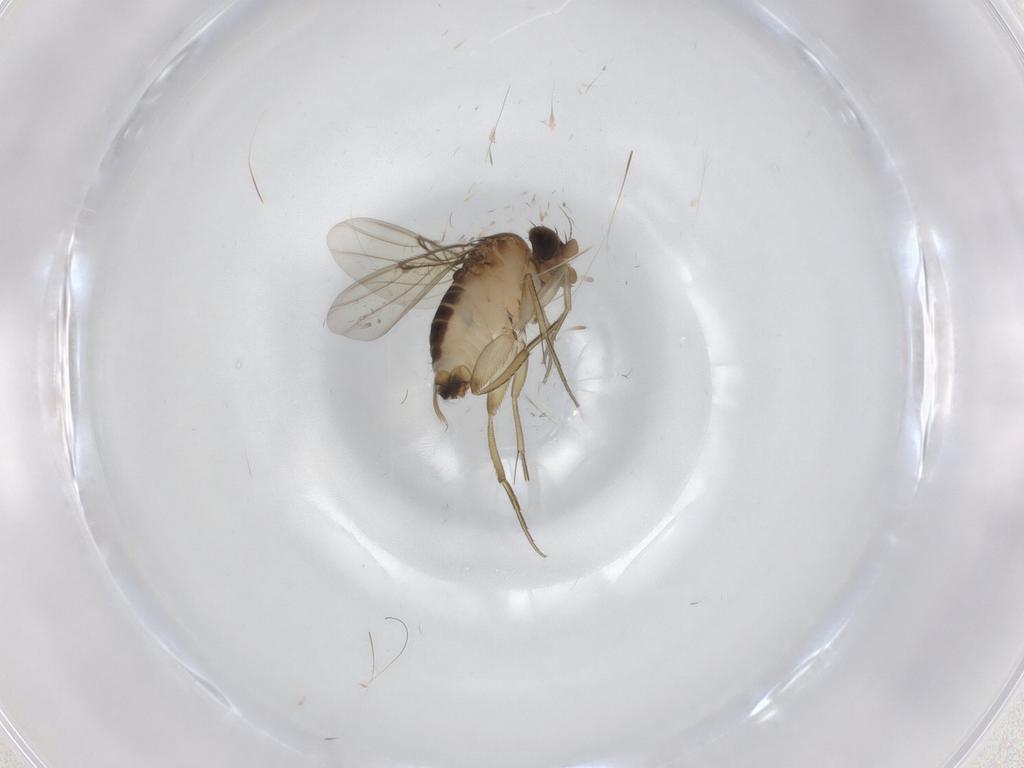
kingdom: Animalia
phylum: Arthropoda
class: Insecta
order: Diptera
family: Phoridae
